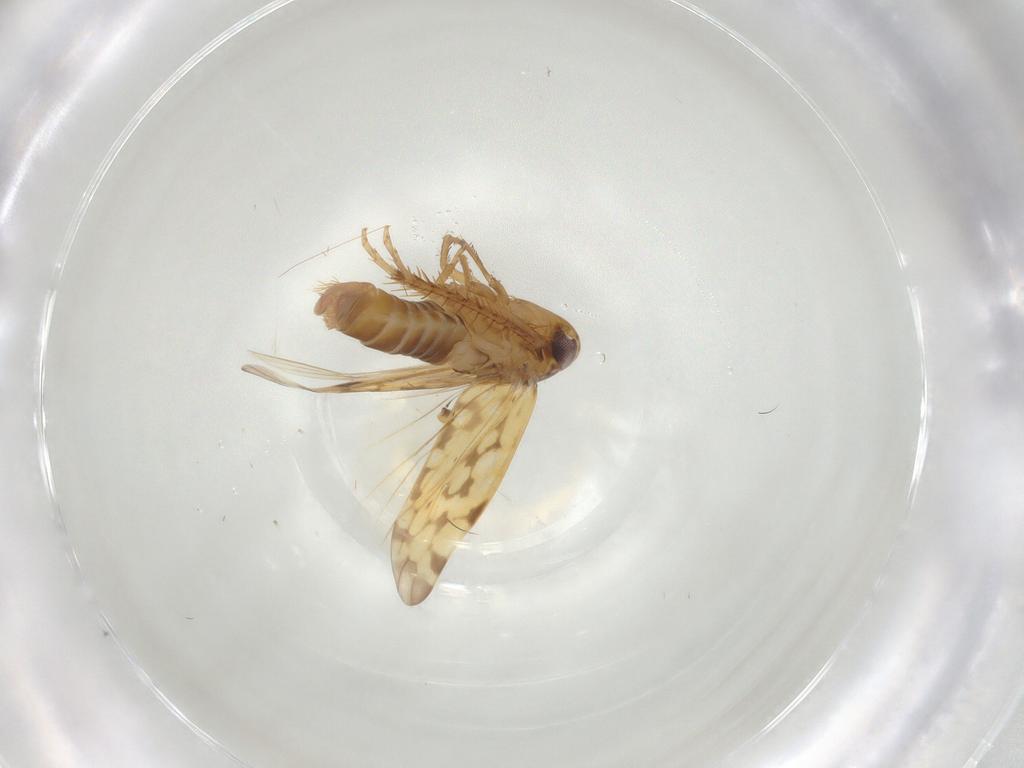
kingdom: Animalia
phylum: Arthropoda
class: Insecta
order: Hemiptera
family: Cicadellidae
